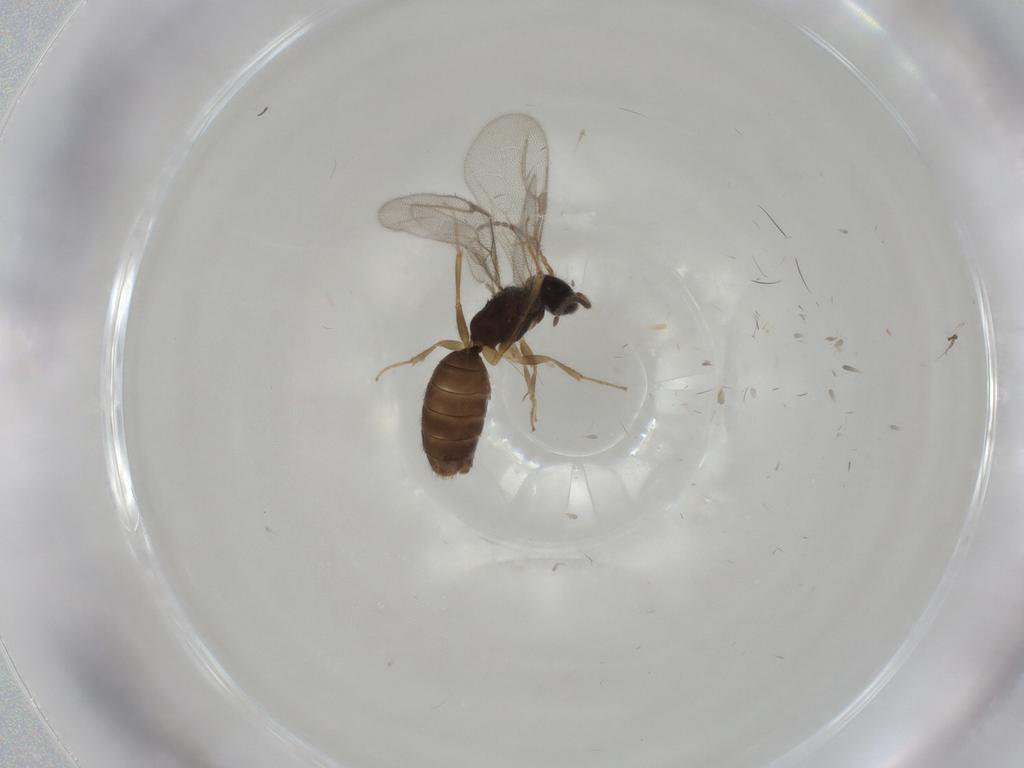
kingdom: Animalia
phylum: Arthropoda
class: Insecta
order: Hymenoptera
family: Bethylidae
